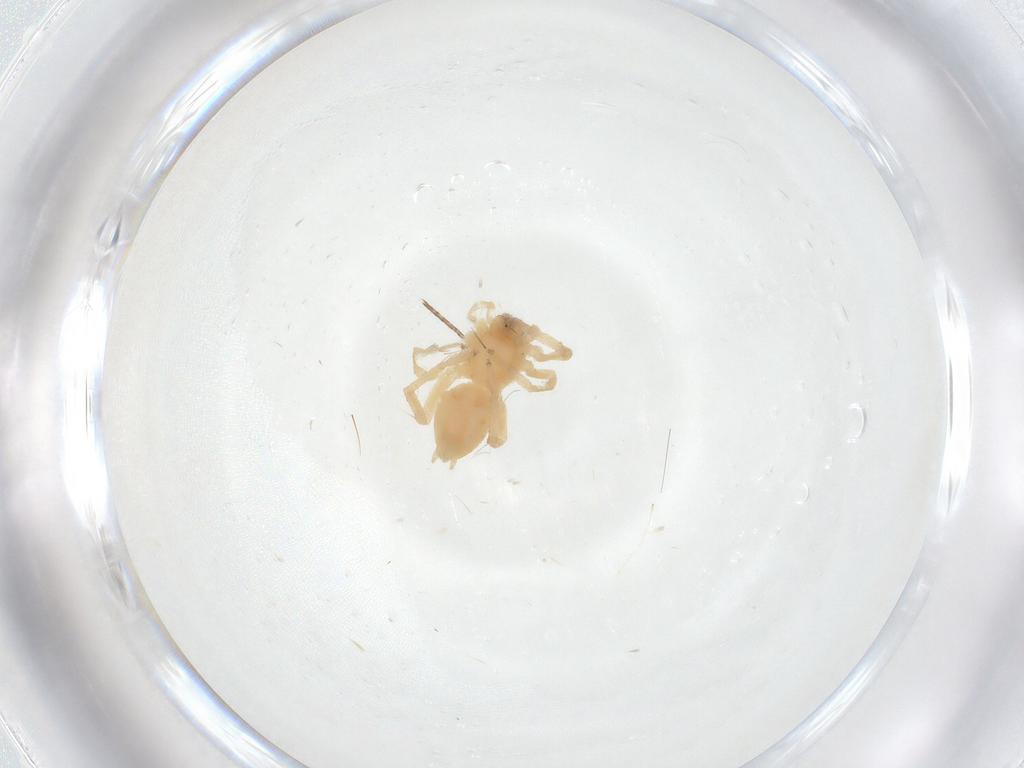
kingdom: Animalia
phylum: Arthropoda
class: Arachnida
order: Araneae
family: Anyphaenidae
